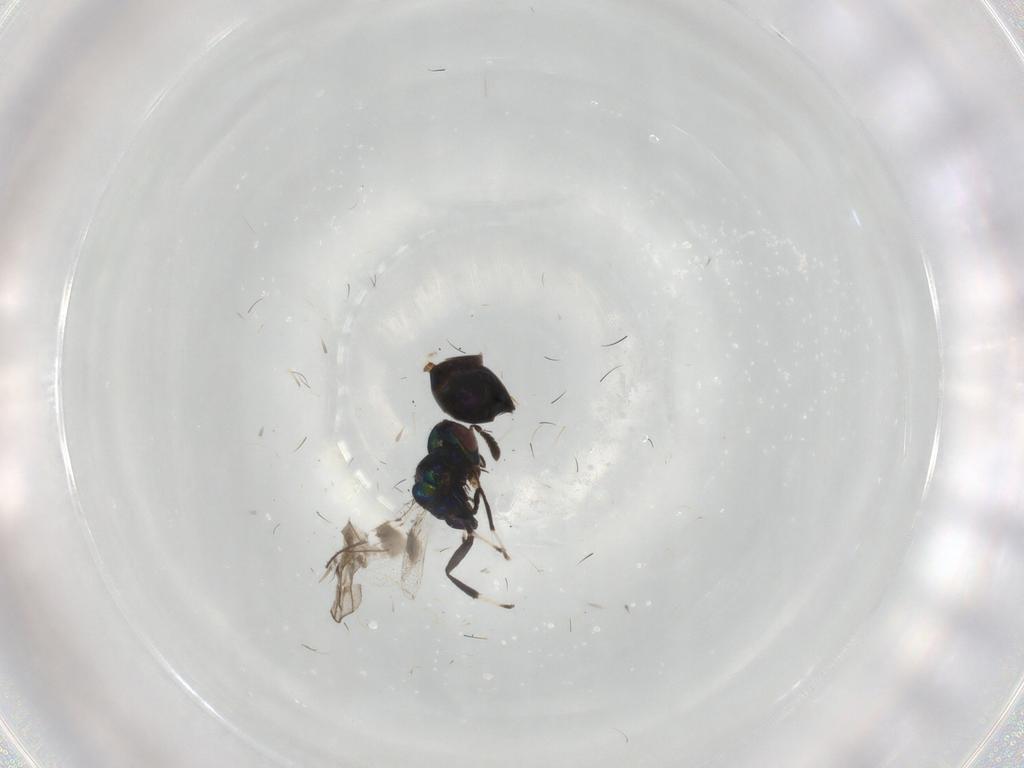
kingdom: Animalia
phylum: Arthropoda
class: Insecta
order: Hymenoptera
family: Pirenidae
